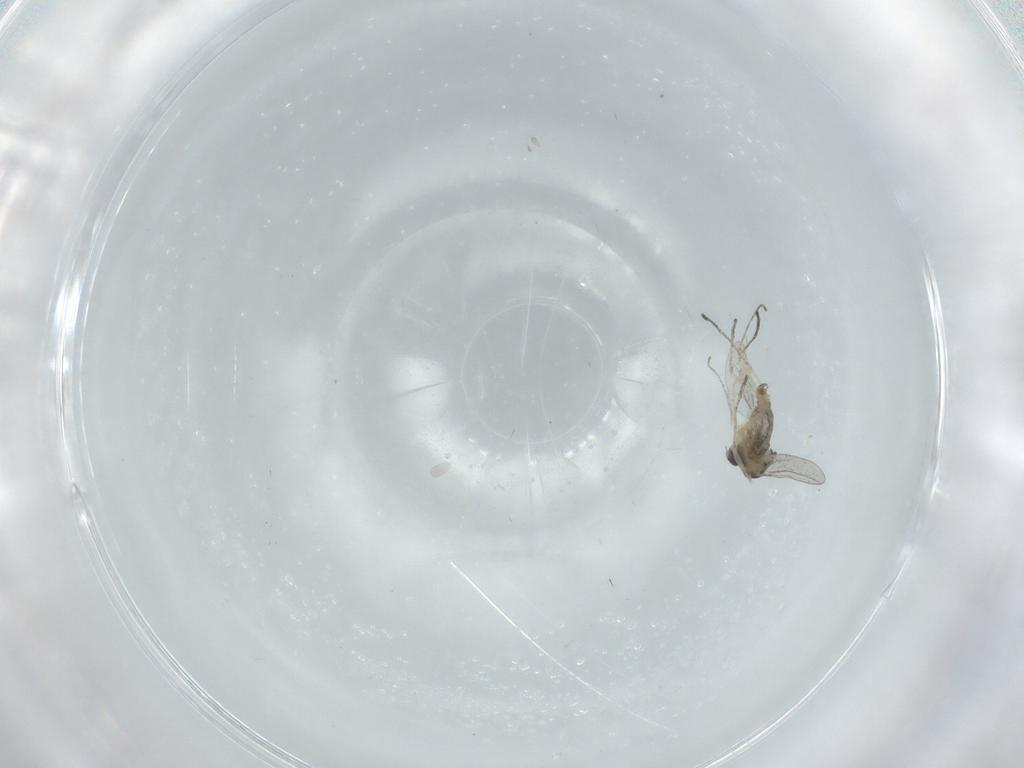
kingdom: Animalia
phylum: Arthropoda
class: Insecta
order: Diptera
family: Cecidomyiidae
